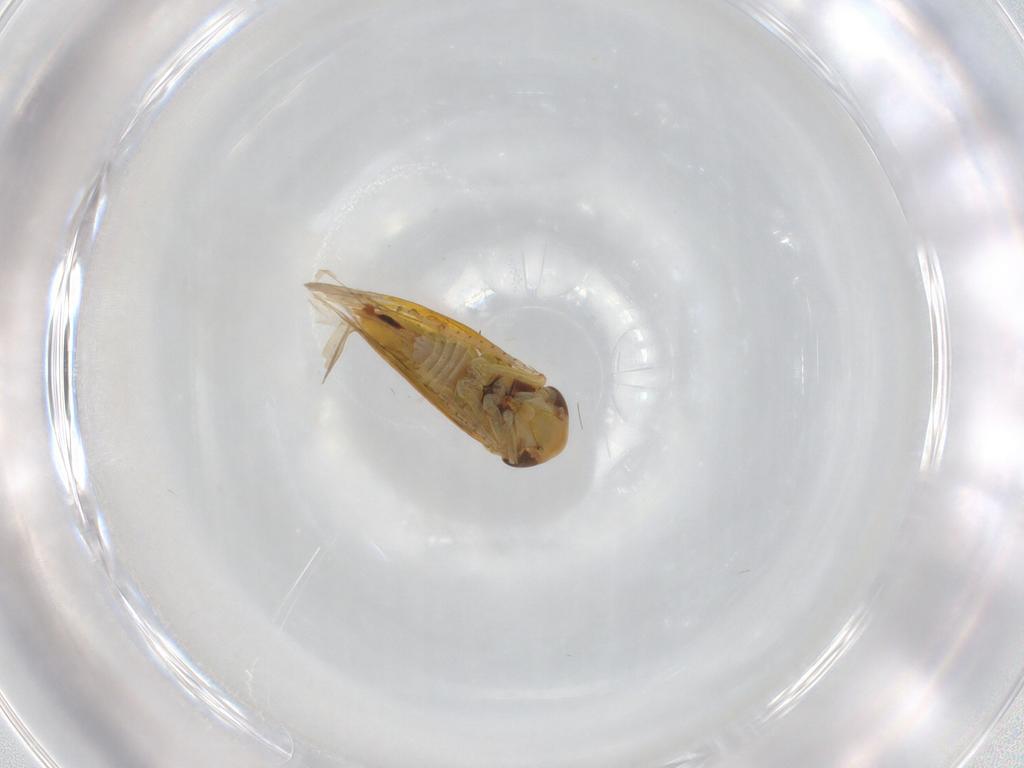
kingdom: Animalia
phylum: Arthropoda
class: Insecta
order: Hemiptera
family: Cicadellidae
